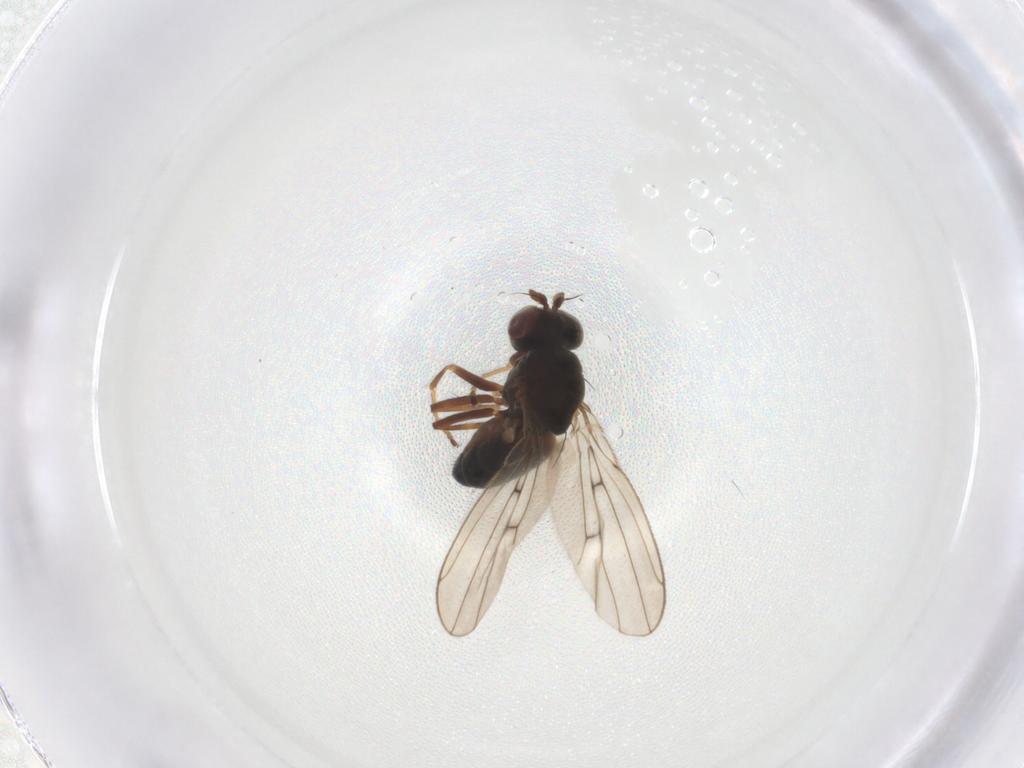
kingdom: Animalia
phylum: Arthropoda
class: Insecta
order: Diptera
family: Ephydridae
